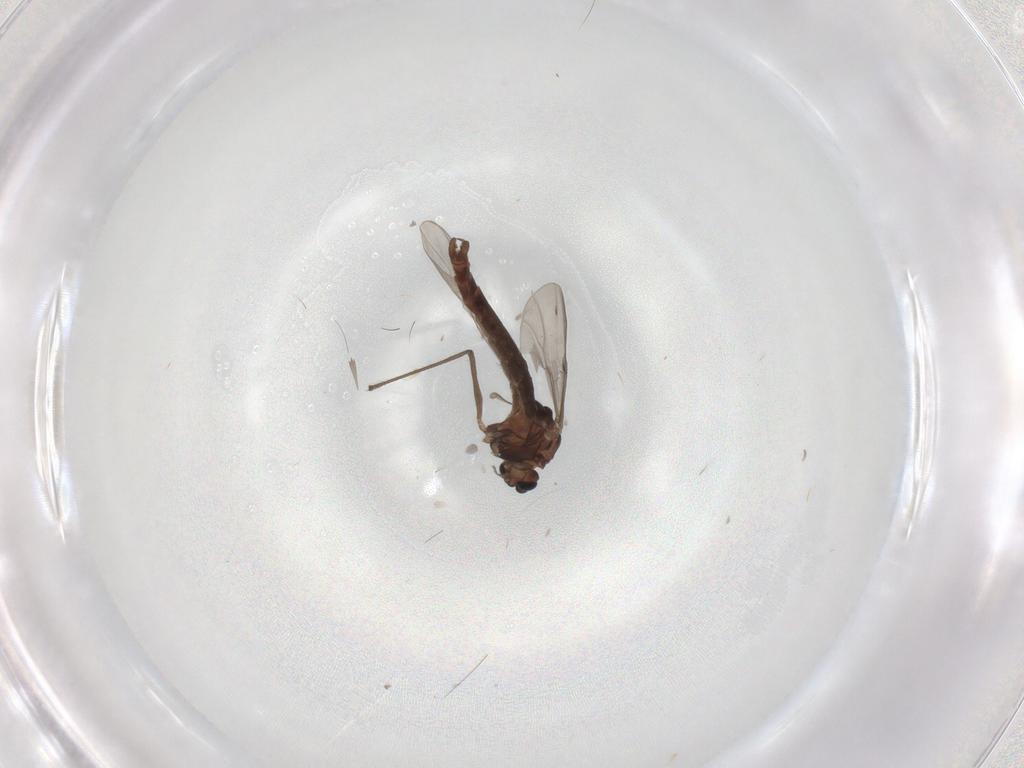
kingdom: Animalia
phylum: Arthropoda
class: Insecta
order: Diptera
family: Chironomidae
